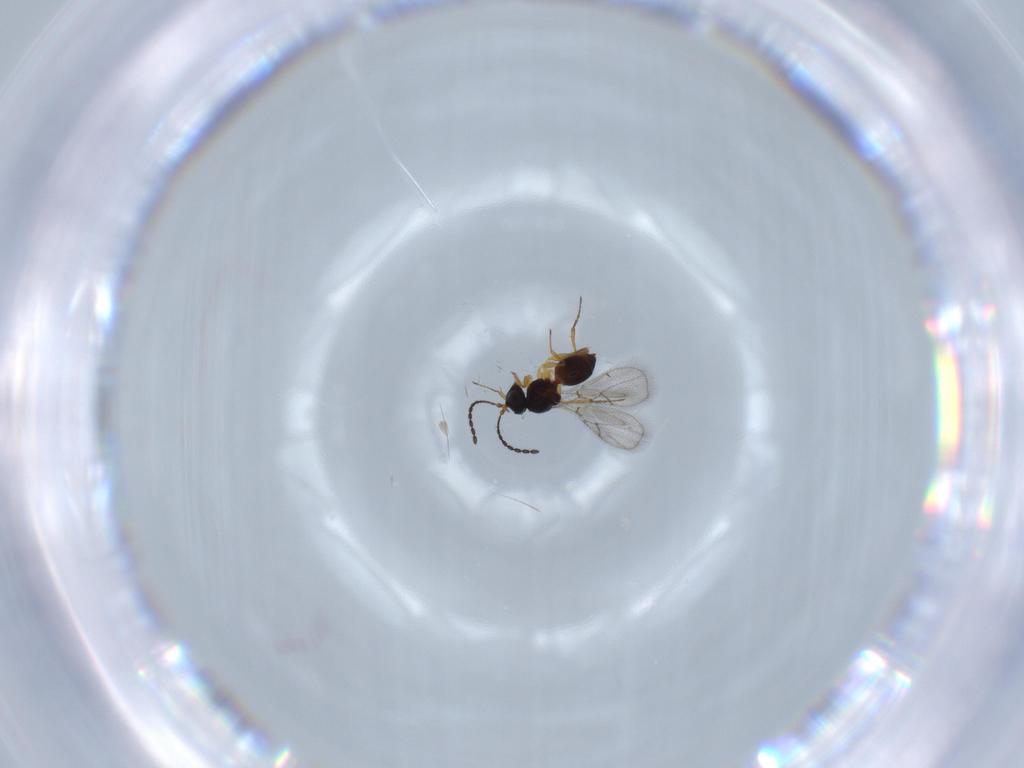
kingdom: Animalia
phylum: Arthropoda
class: Insecta
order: Hymenoptera
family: Figitidae
